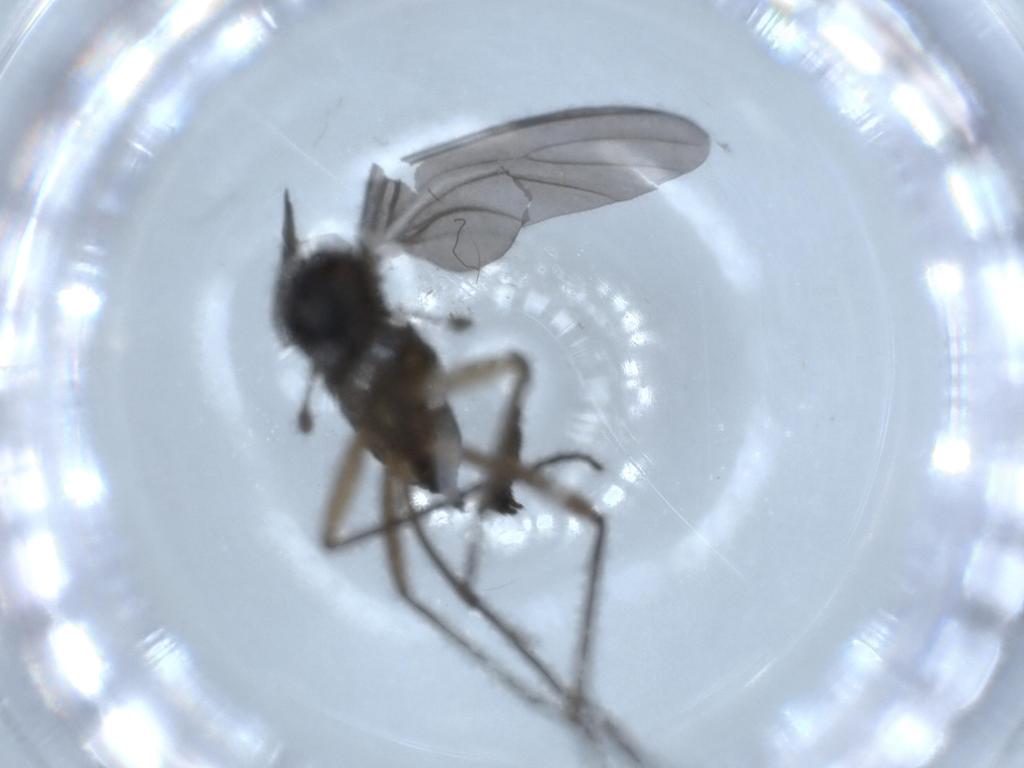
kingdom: Animalia
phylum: Arthropoda
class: Insecta
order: Diptera
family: Sciaridae
